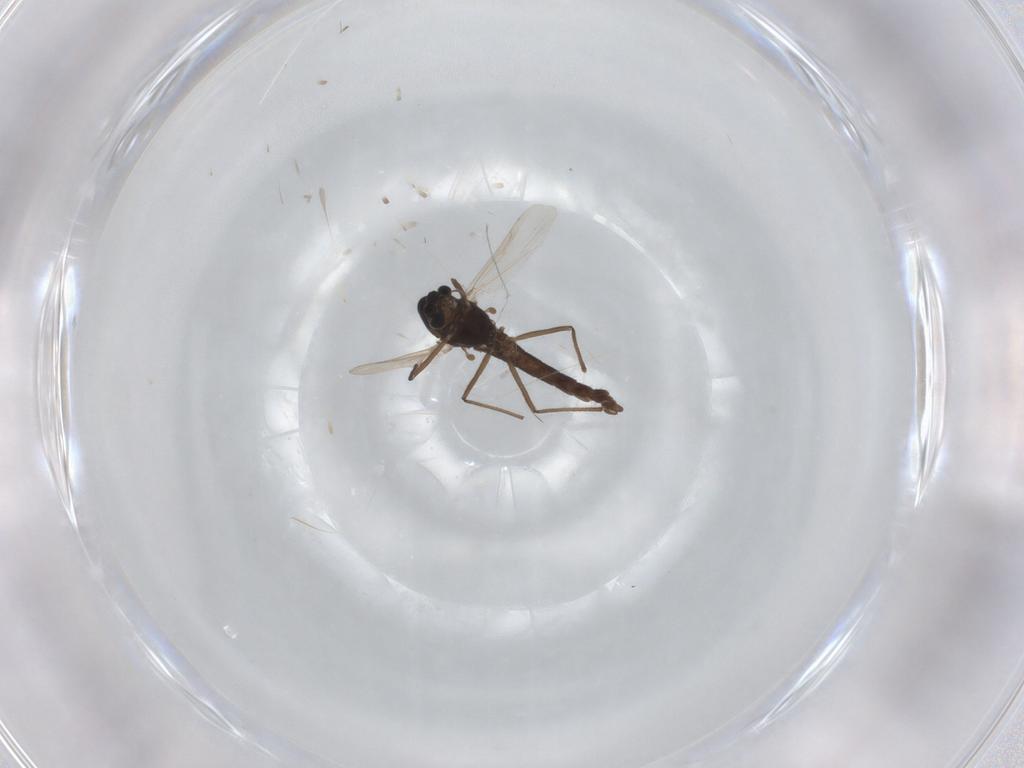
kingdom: Animalia
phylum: Arthropoda
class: Insecta
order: Diptera
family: Chironomidae
